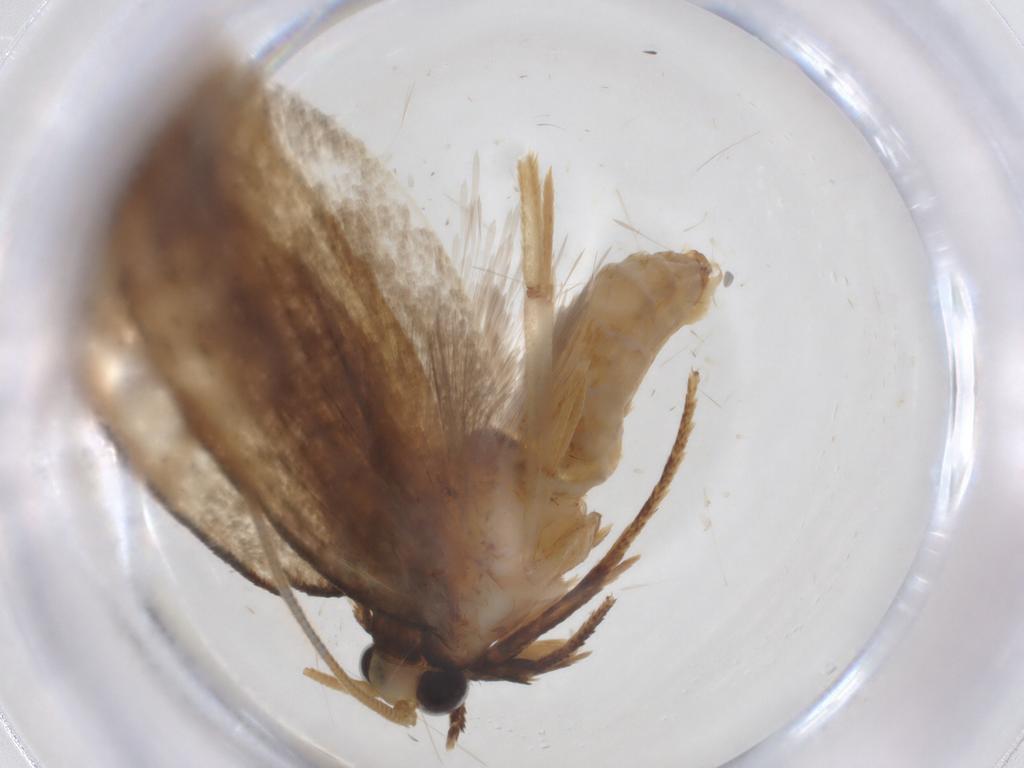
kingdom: Animalia
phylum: Arthropoda
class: Insecta
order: Lepidoptera
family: Tineidae
